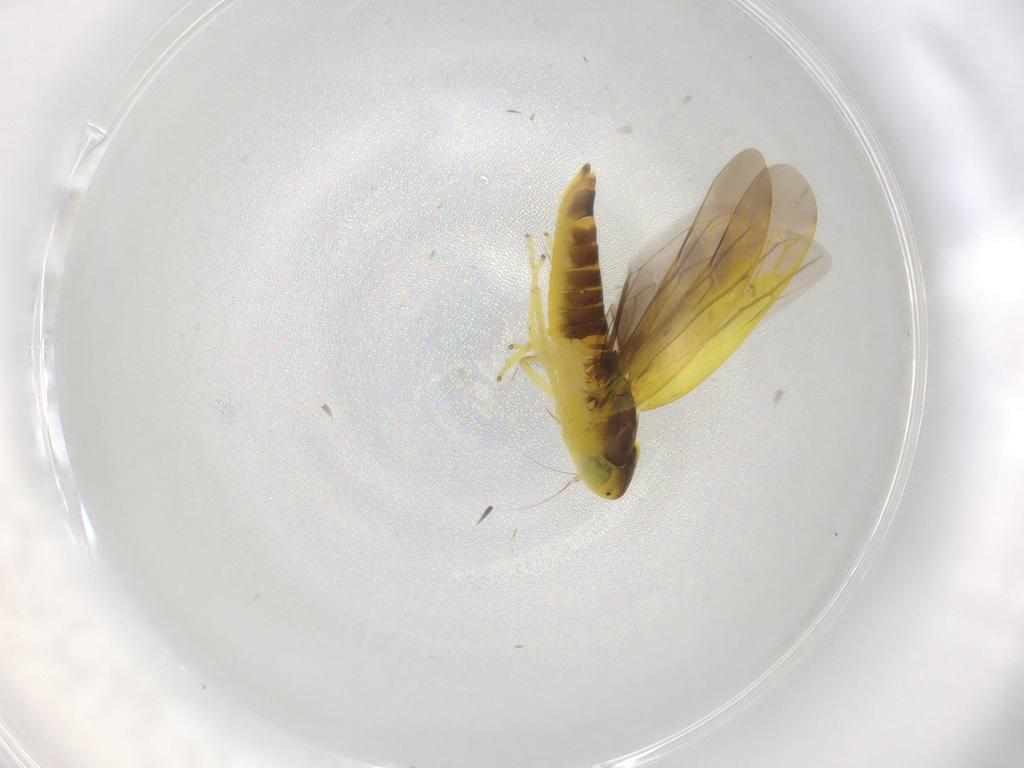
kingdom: Animalia
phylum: Arthropoda
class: Insecta
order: Hemiptera
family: Cicadellidae
